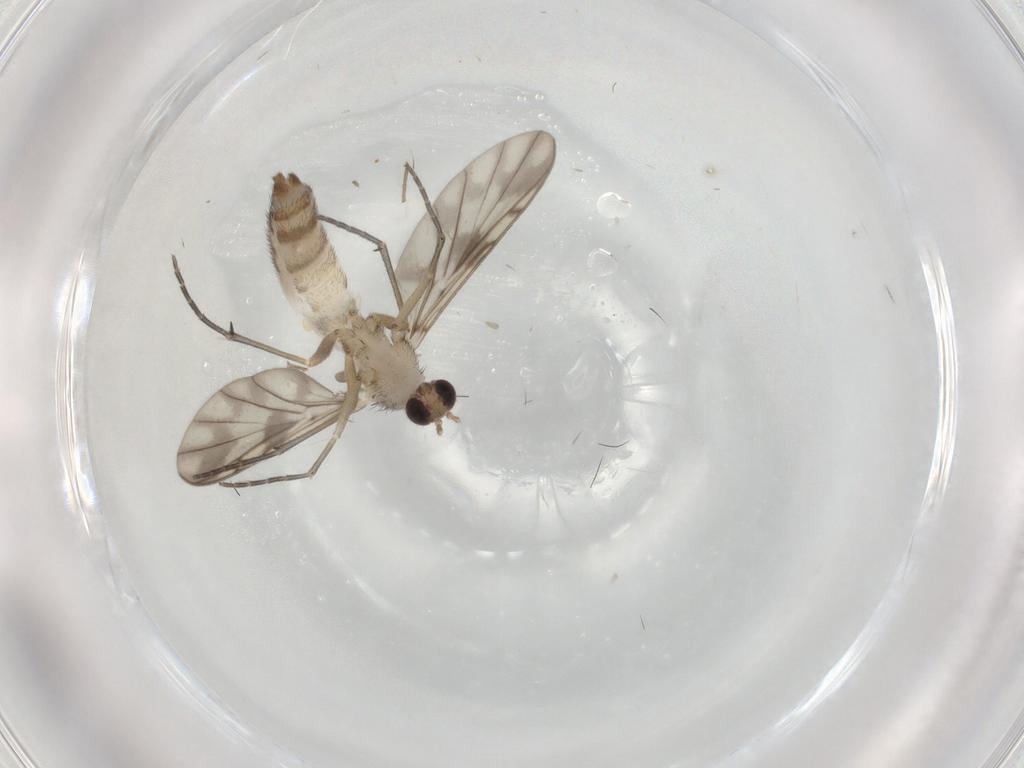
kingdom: Animalia
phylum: Arthropoda
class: Insecta
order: Diptera
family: Keroplatidae
